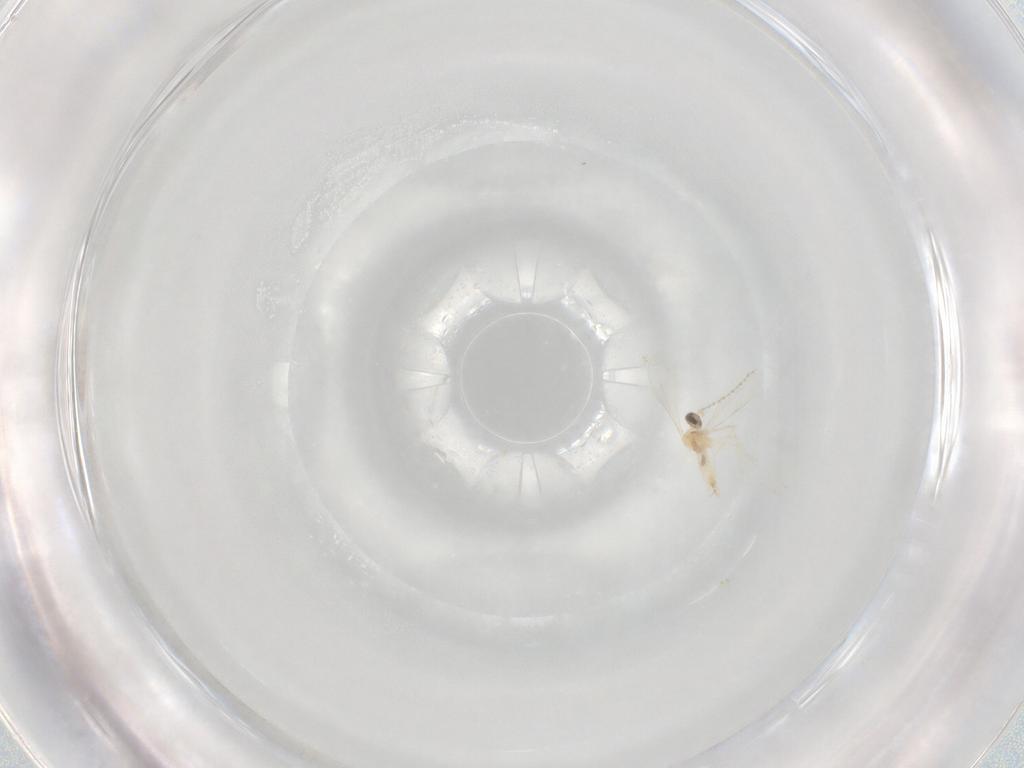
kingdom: Animalia
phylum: Arthropoda
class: Insecta
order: Diptera
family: Cecidomyiidae
